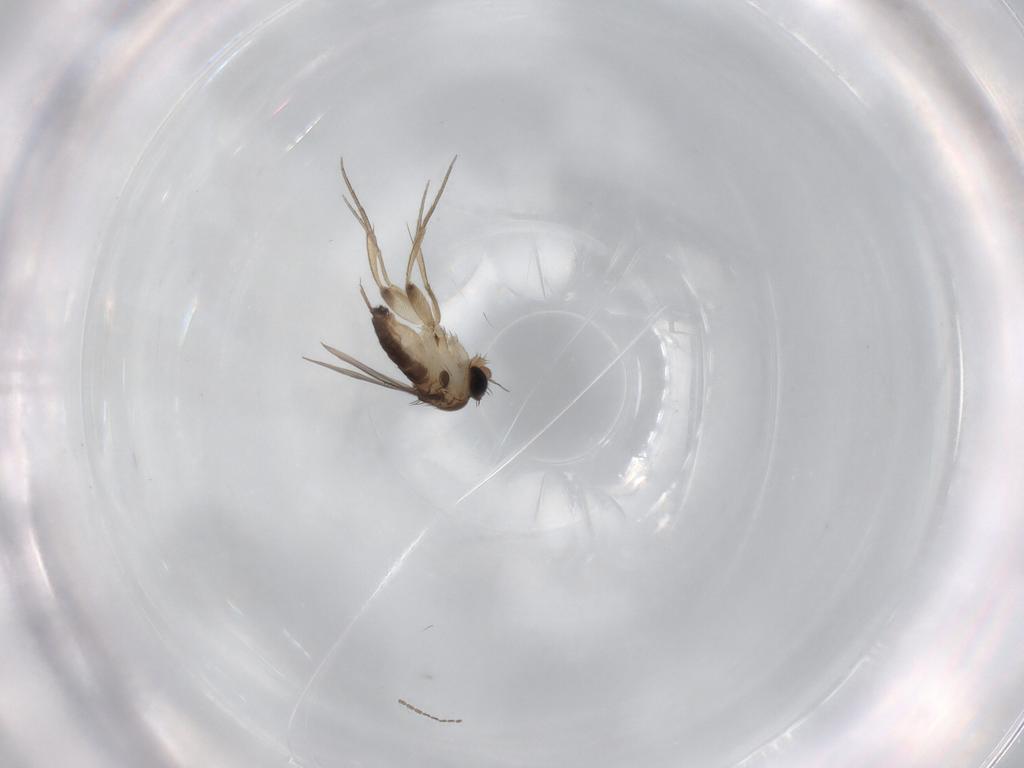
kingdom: Animalia
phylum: Arthropoda
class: Insecta
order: Diptera
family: Phoridae
